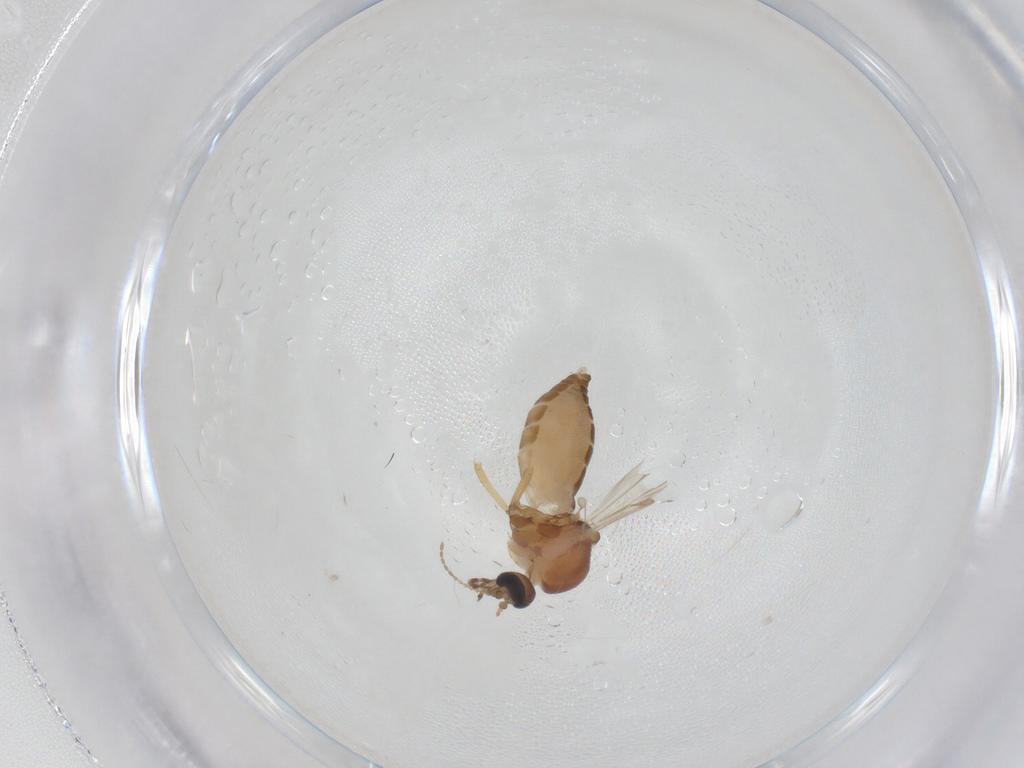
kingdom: Animalia
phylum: Arthropoda
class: Insecta
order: Diptera
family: Ceratopogonidae
